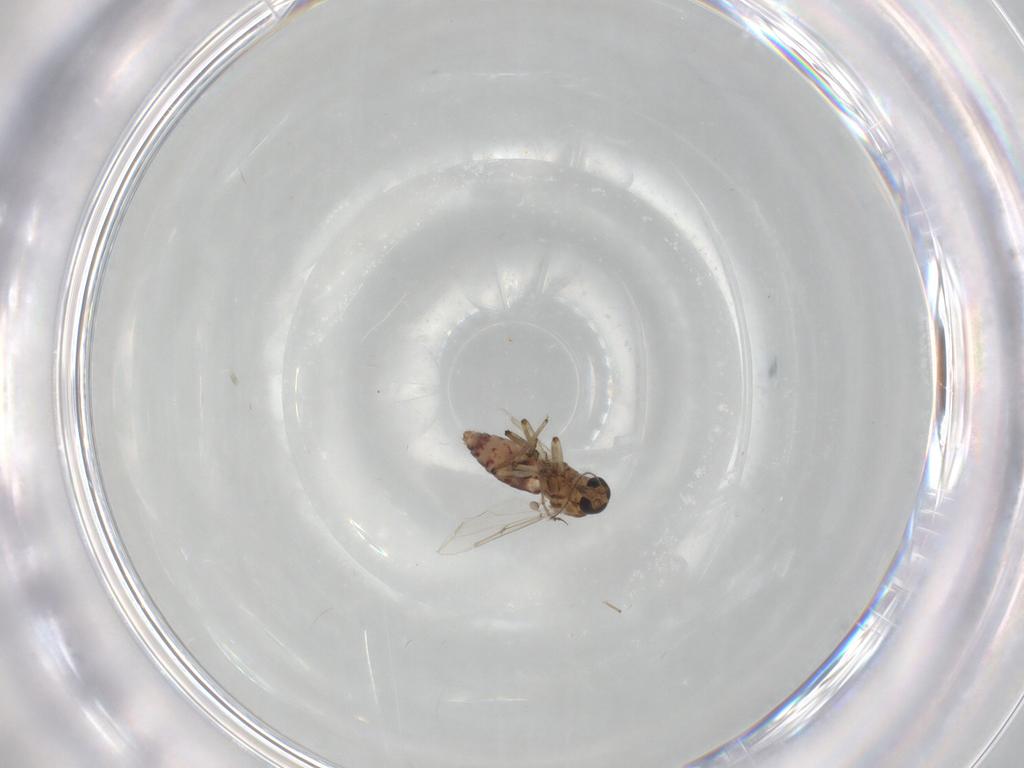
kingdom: Animalia
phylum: Arthropoda
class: Insecta
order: Diptera
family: Ceratopogonidae
